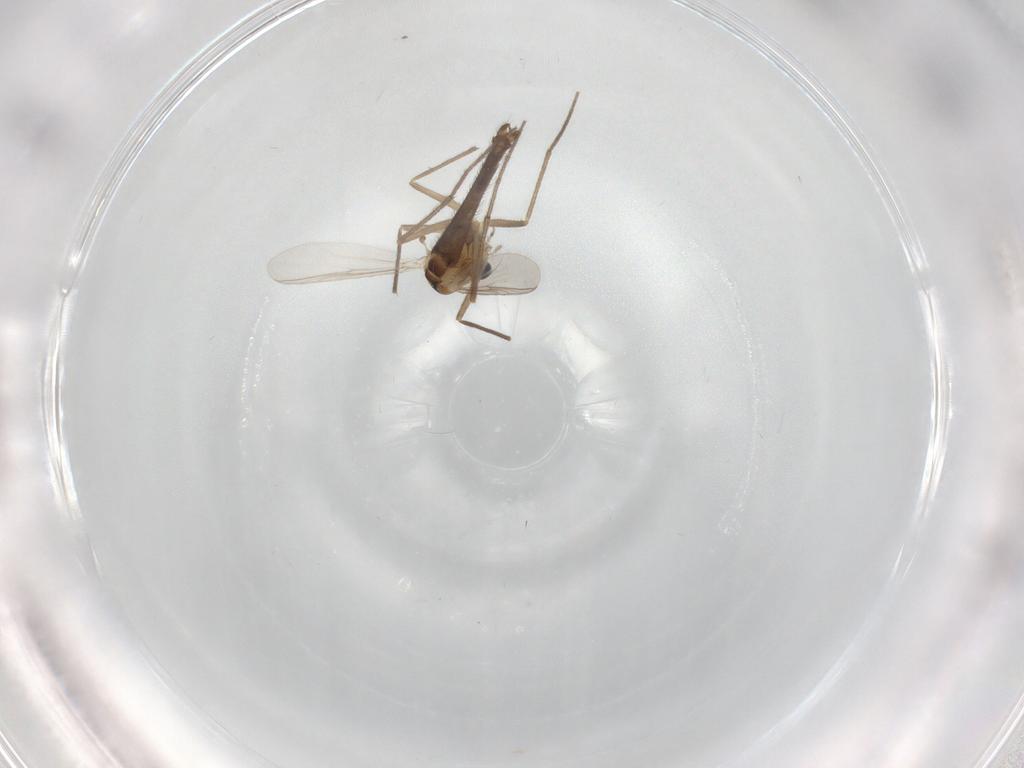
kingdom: Animalia
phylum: Arthropoda
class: Insecta
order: Diptera
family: Chironomidae
